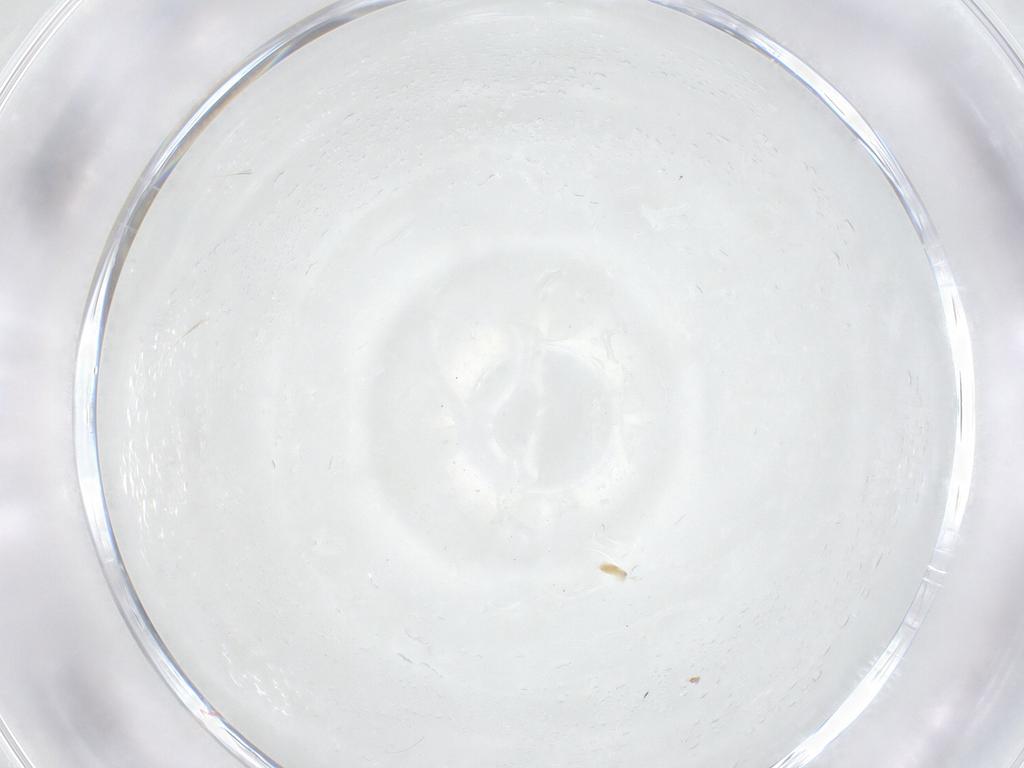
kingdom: Animalia
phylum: Arthropoda
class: Arachnida
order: Trombidiformes
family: Eupodidae
